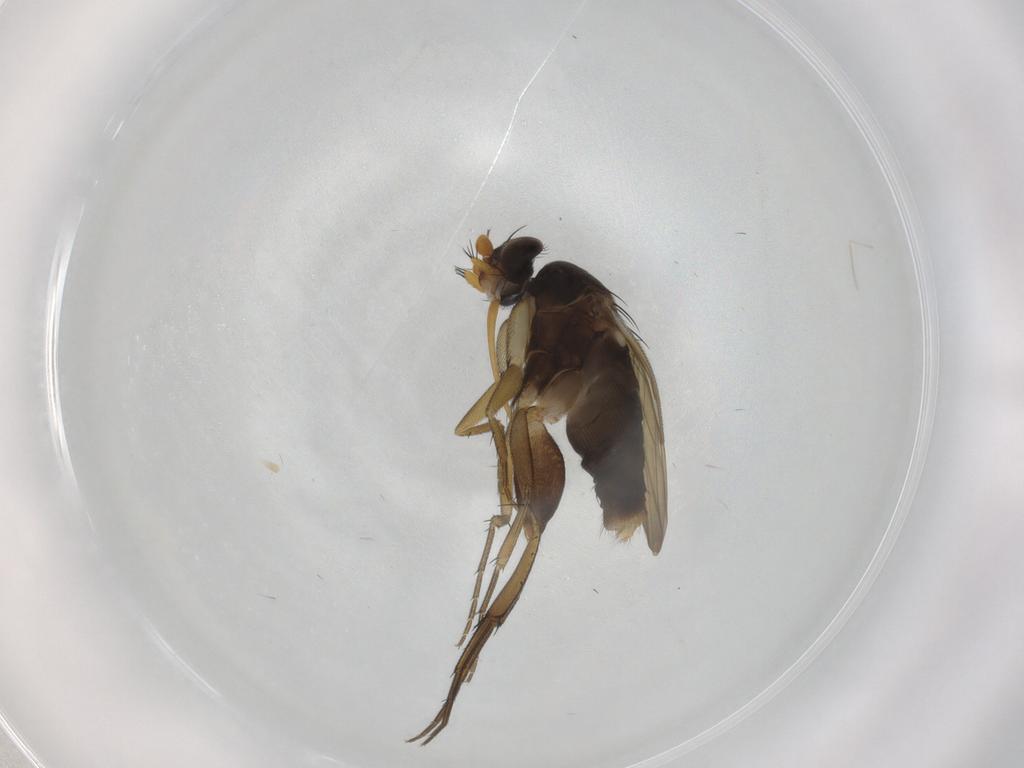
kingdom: Animalia
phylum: Arthropoda
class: Insecta
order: Diptera
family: Phoridae
